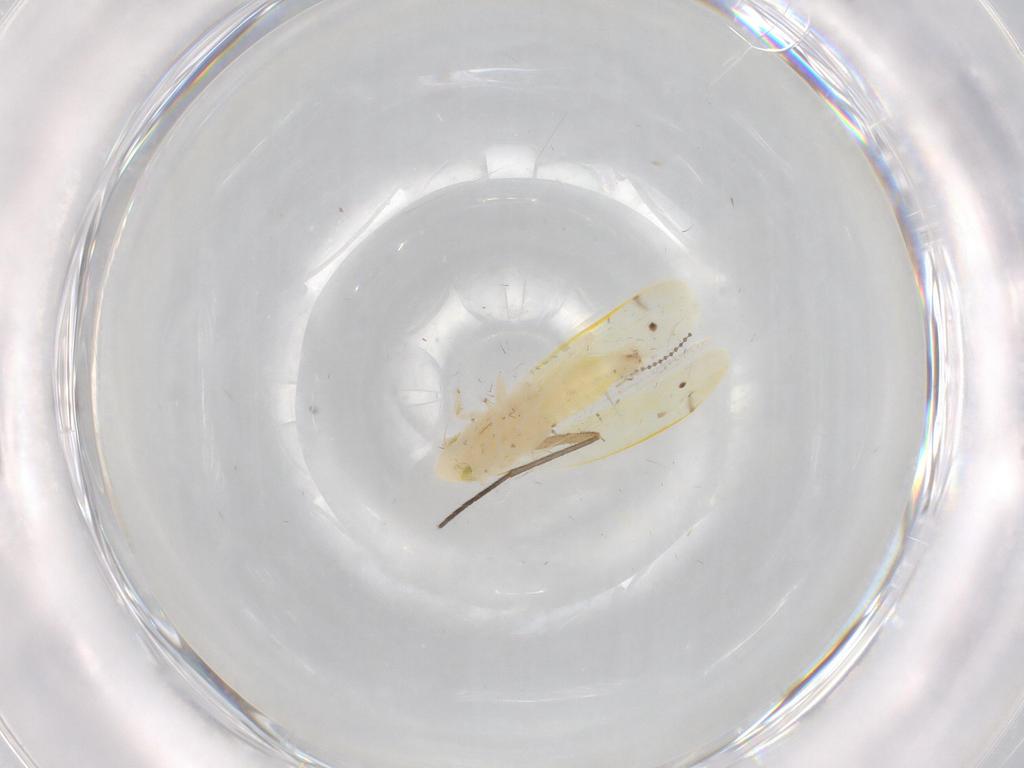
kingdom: Animalia
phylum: Arthropoda
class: Insecta
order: Hemiptera
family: Cicadellidae
